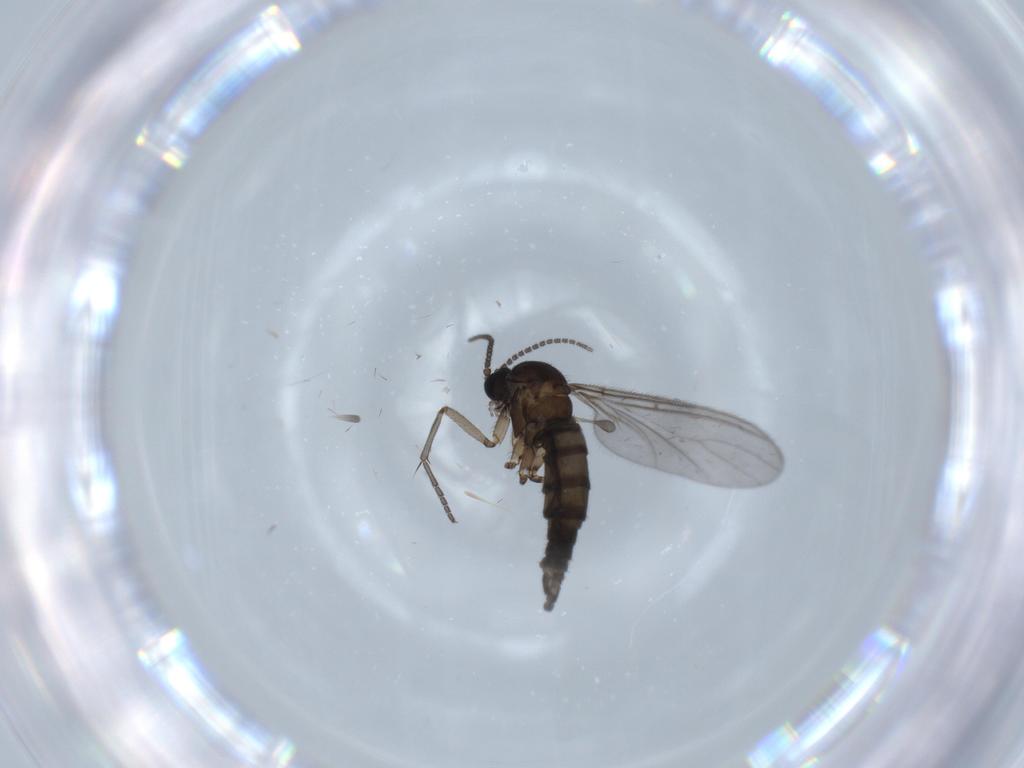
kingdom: Animalia
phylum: Arthropoda
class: Insecta
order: Diptera
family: Sciaridae
